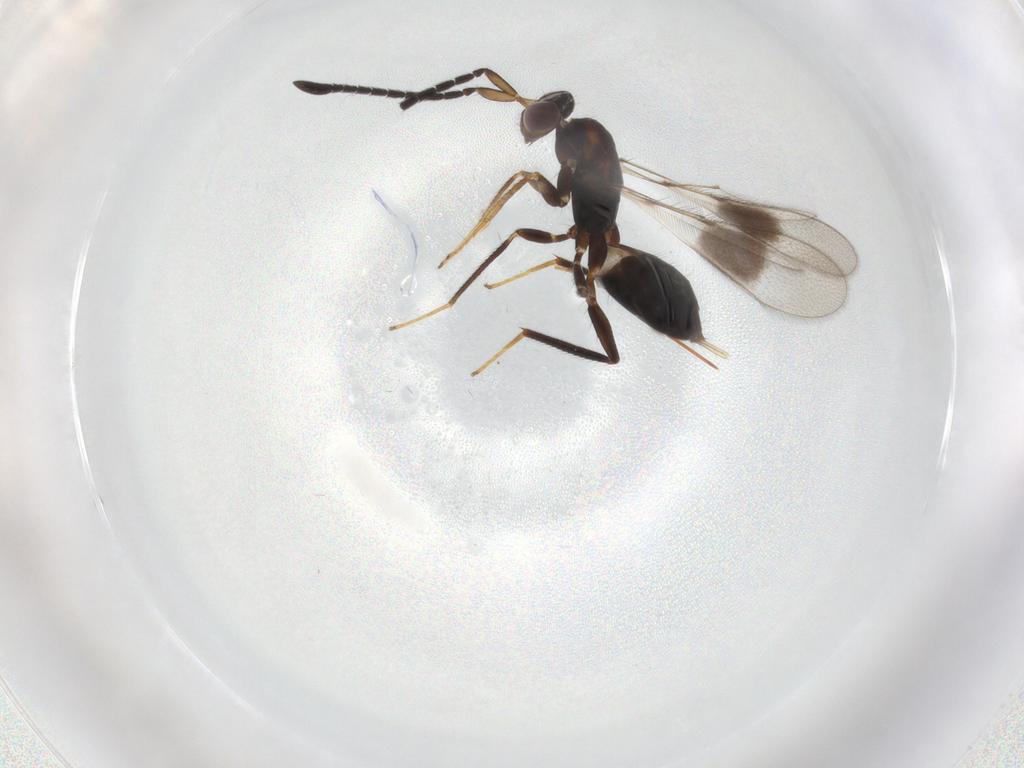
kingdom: Animalia
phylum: Arthropoda
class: Insecta
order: Hymenoptera
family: Mymaridae
